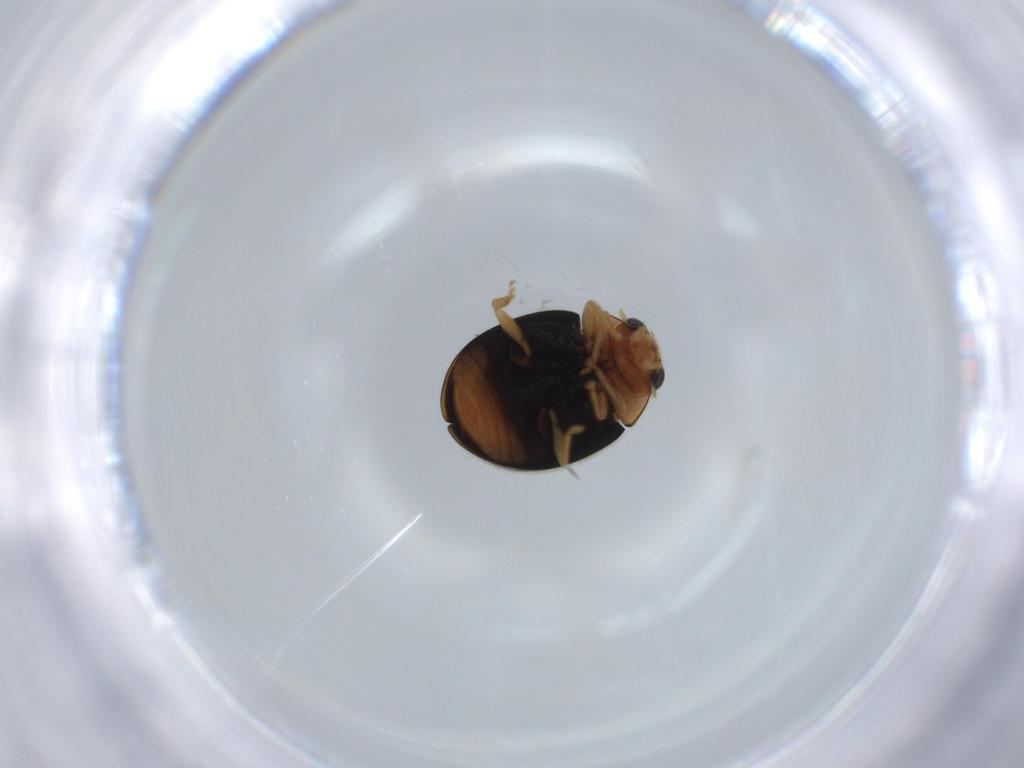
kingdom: Animalia
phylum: Arthropoda
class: Insecta
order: Coleoptera
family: Coccinellidae
